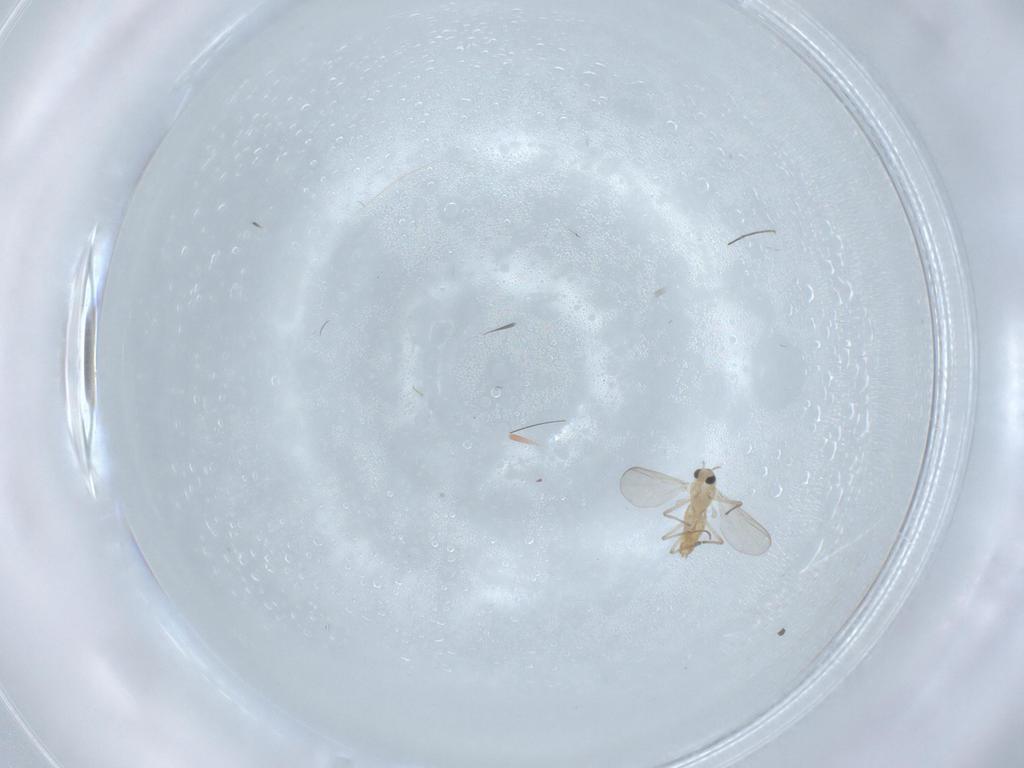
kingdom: Animalia
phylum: Arthropoda
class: Insecta
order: Diptera
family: Chironomidae
